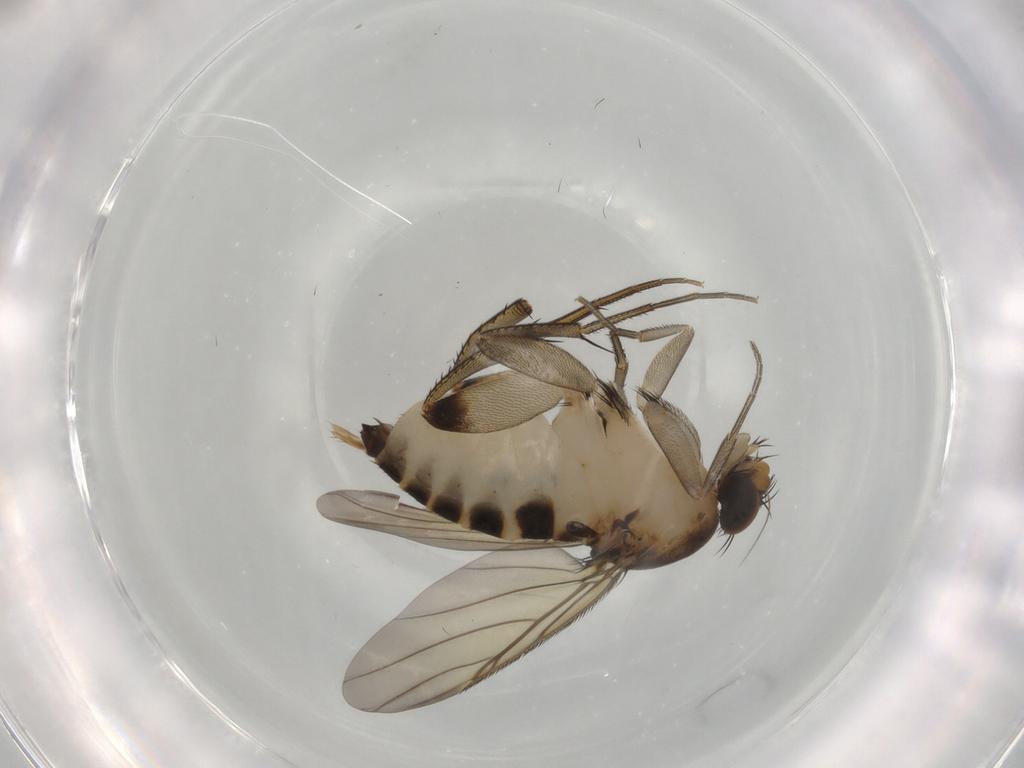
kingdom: Animalia
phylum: Arthropoda
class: Insecta
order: Diptera
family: Phoridae
